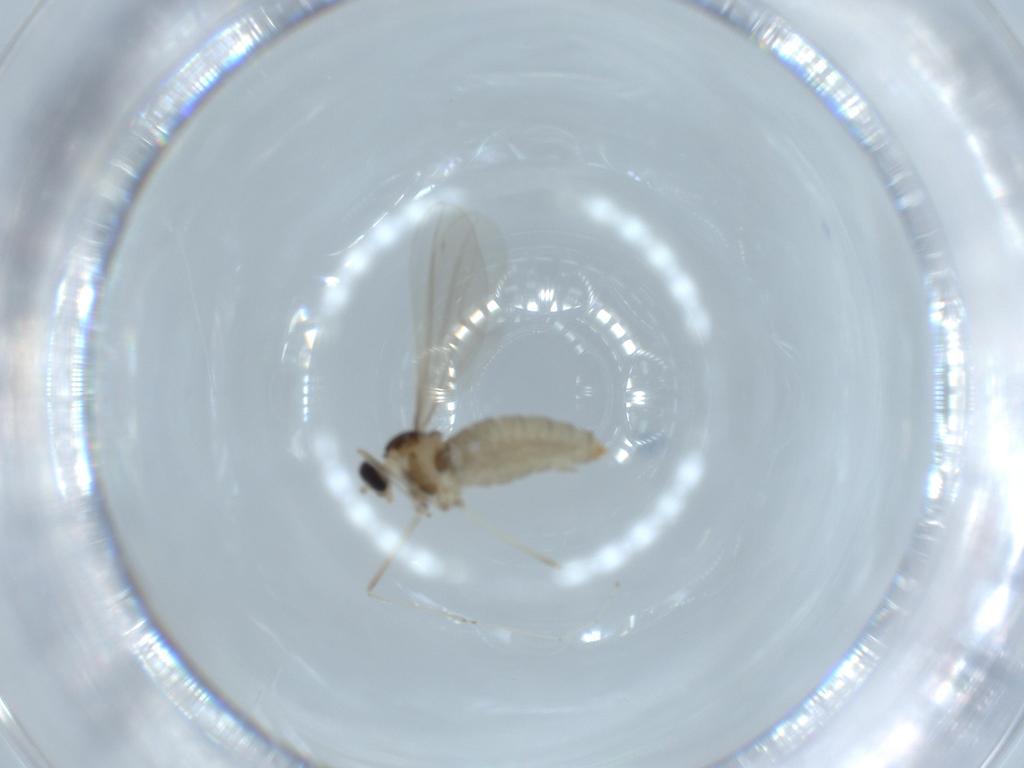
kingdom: Animalia
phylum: Arthropoda
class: Insecta
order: Diptera
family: Cecidomyiidae
